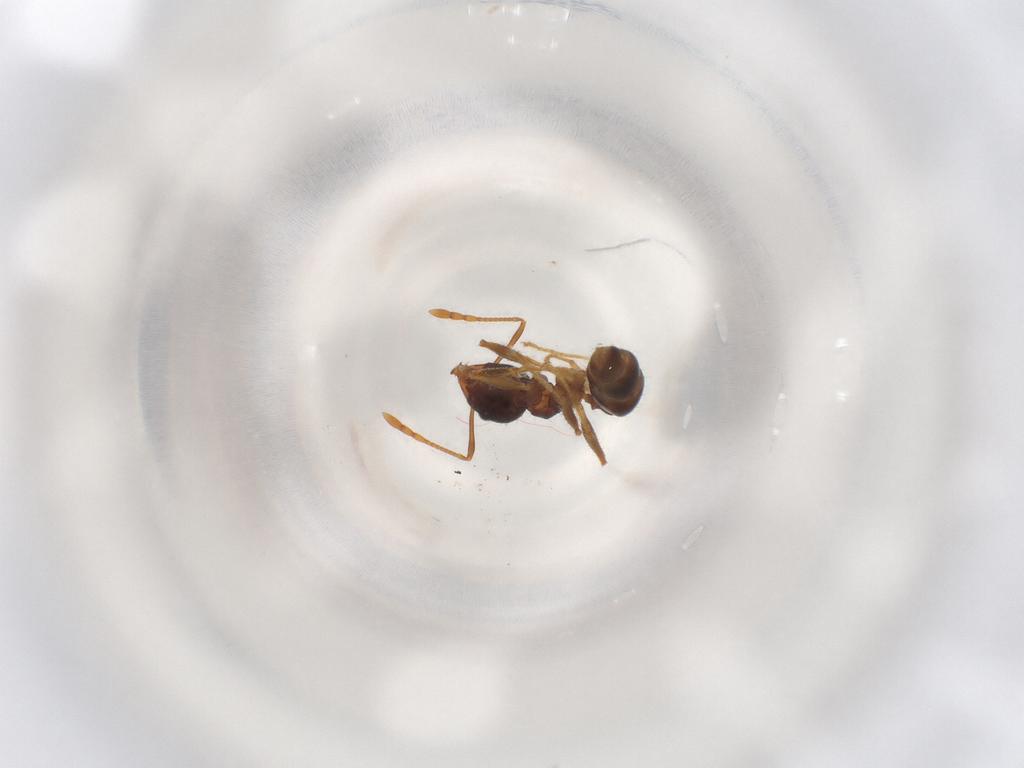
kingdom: Animalia
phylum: Arthropoda
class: Insecta
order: Hymenoptera
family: Formicidae
